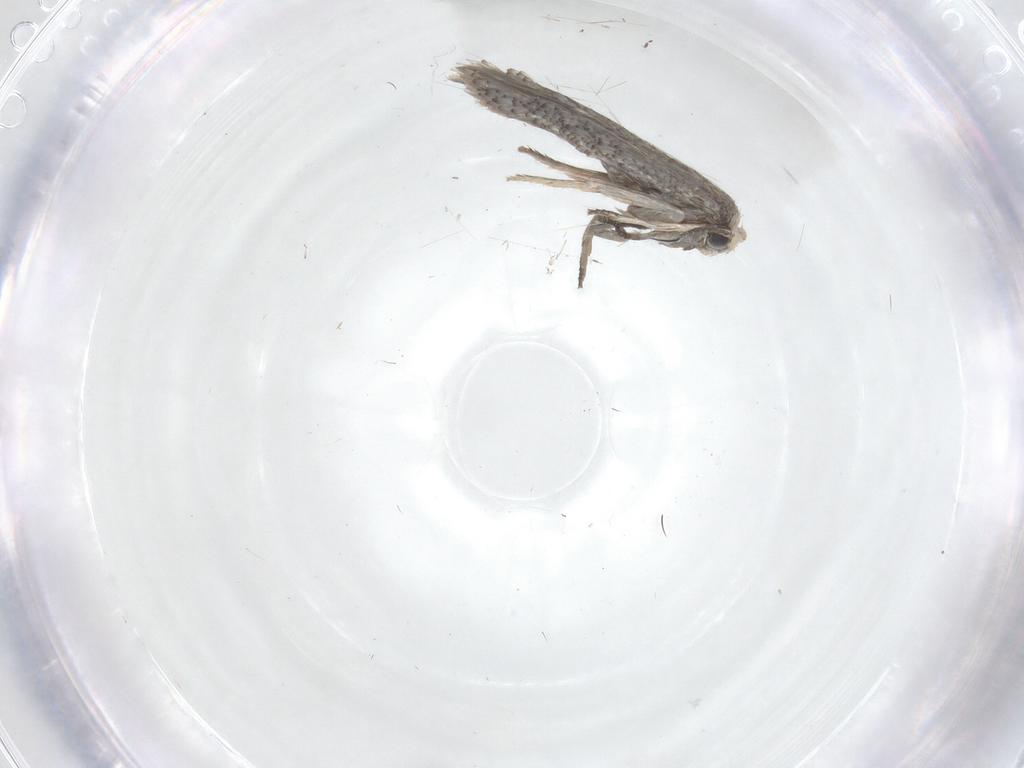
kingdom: Animalia
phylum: Arthropoda
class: Insecta
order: Lepidoptera
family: Nepticulidae
